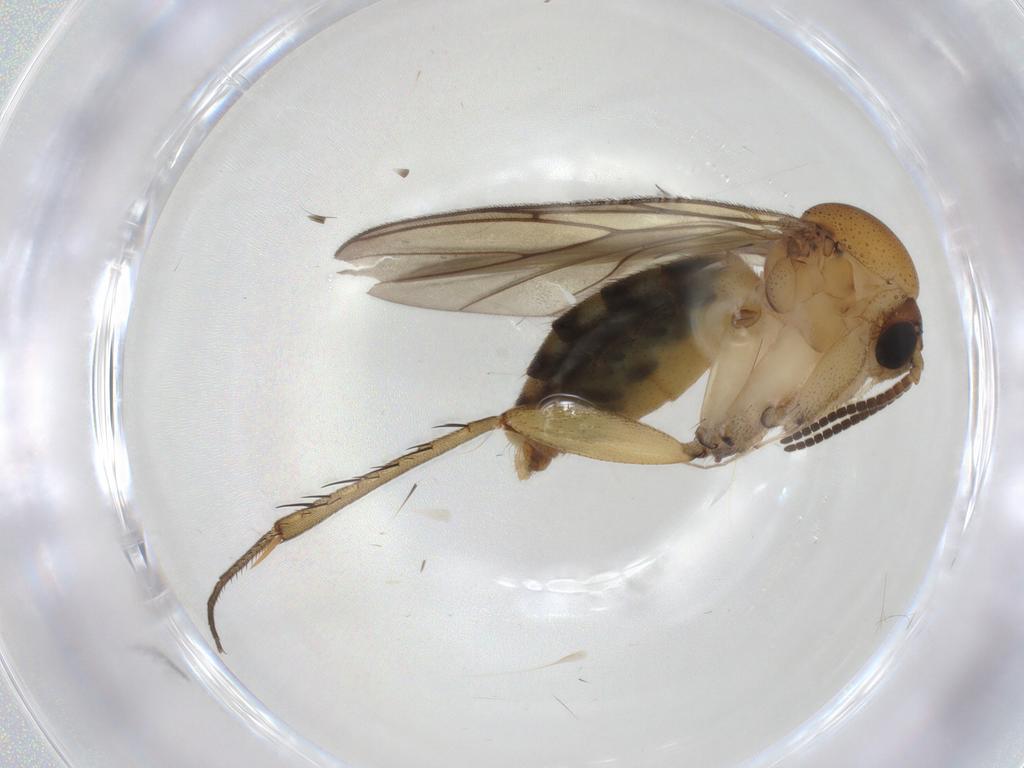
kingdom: Animalia
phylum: Arthropoda
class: Insecta
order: Diptera
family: Mycetophilidae
